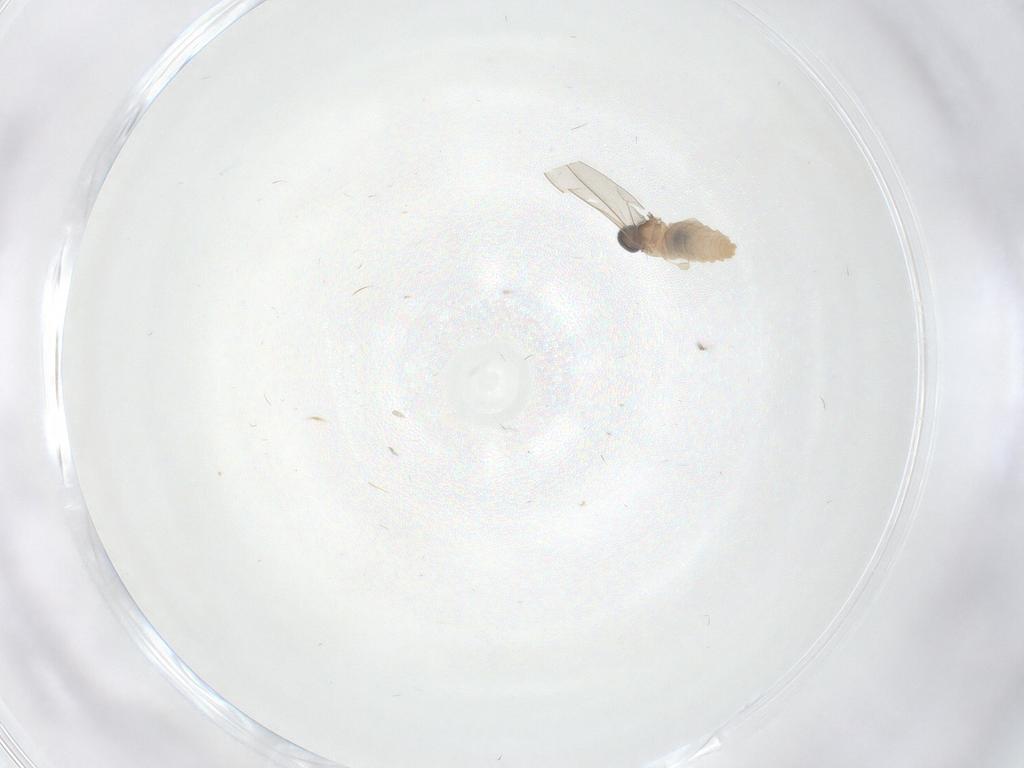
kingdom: Animalia
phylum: Arthropoda
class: Insecta
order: Diptera
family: Cecidomyiidae
